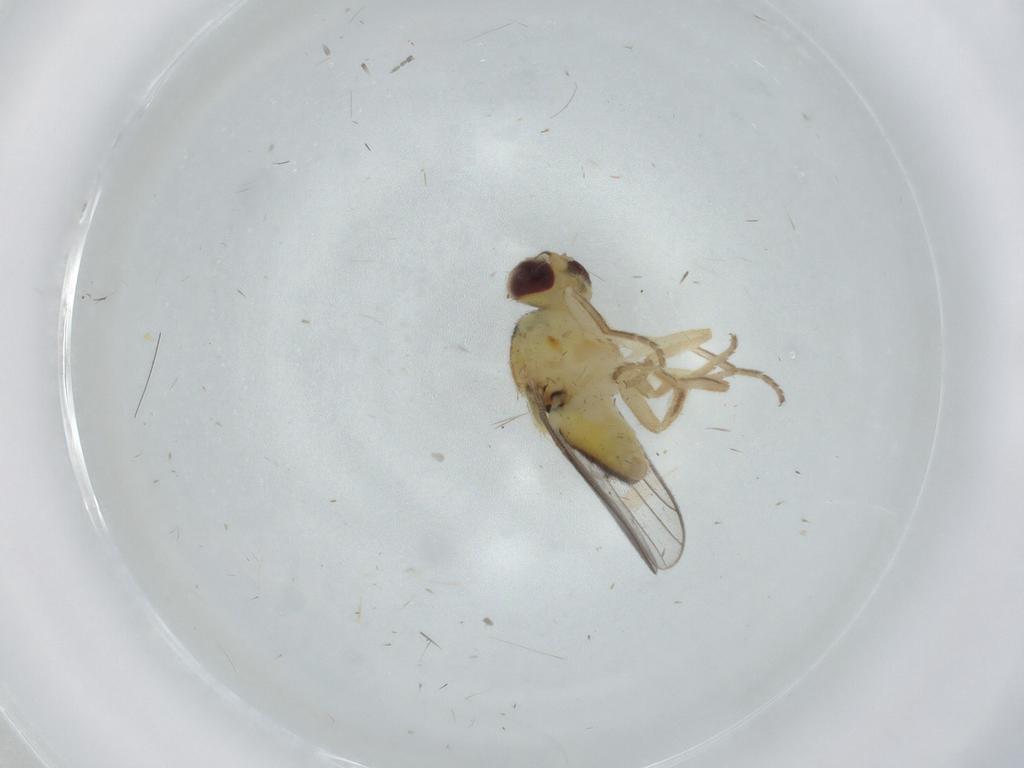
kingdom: Animalia
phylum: Arthropoda
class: Insecta
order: Diptera
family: Chloropidae
